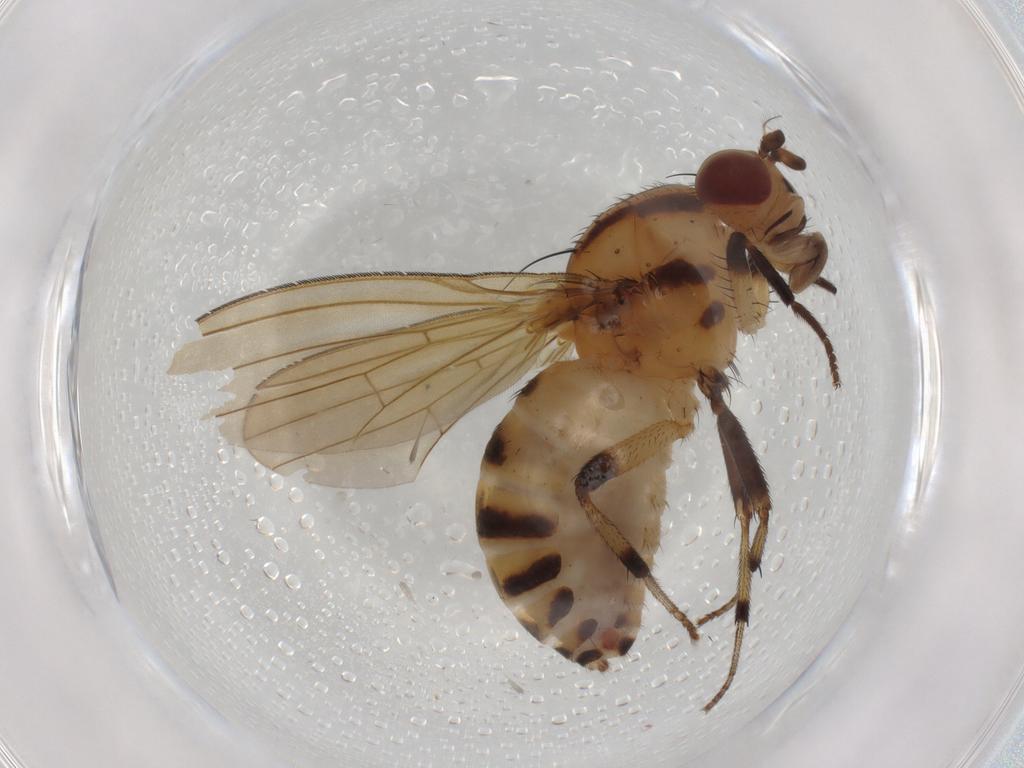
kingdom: Animalia
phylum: Arthropoda
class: Insecta
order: Diptera
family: Lauxaniidae
